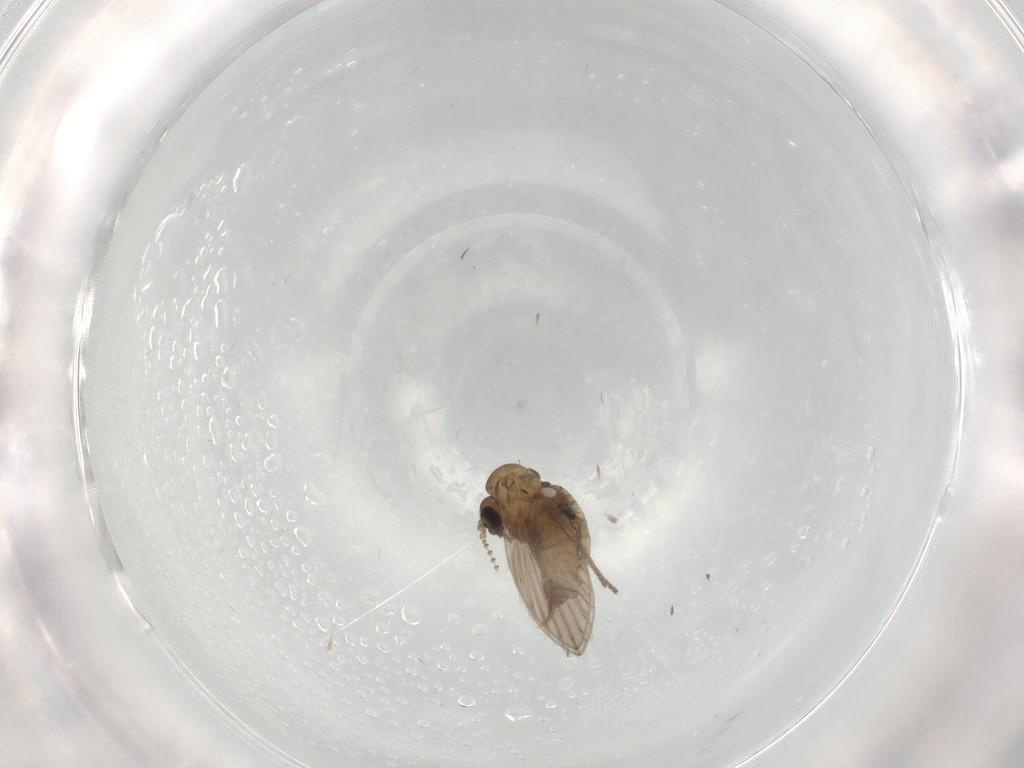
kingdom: Animalia
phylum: Arthropoda
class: Insecta
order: Diptera
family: Psychodidae
